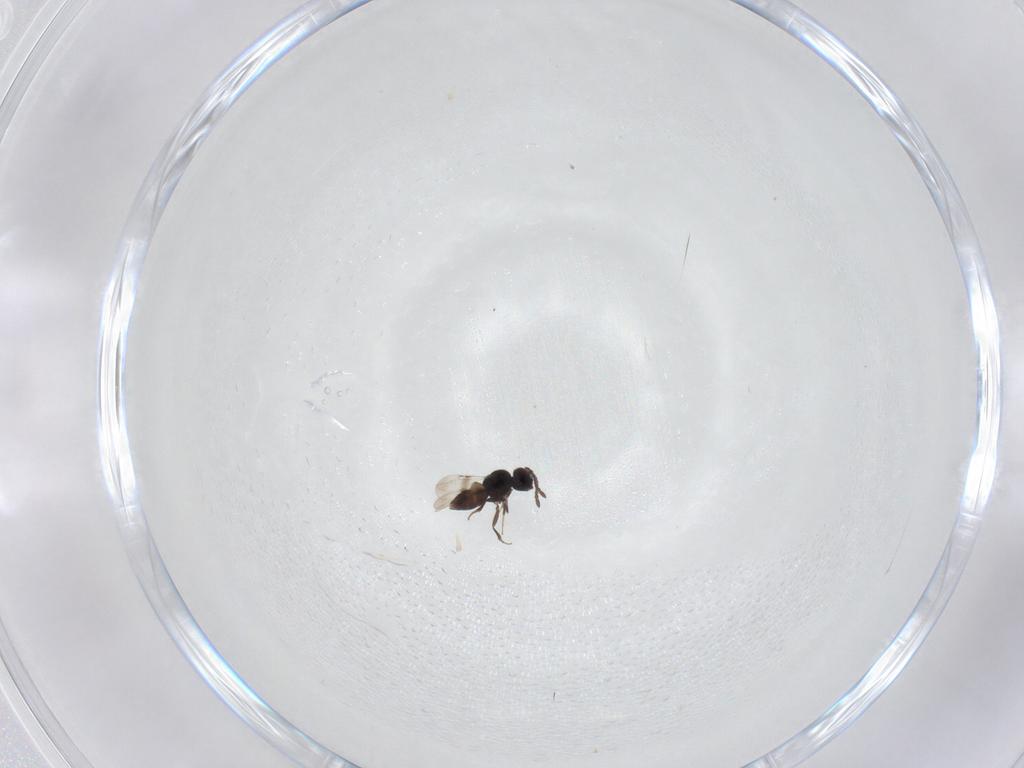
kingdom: Animalia
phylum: Arthropoda
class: Insecta
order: Hymenoptera
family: Ceraphronidae
